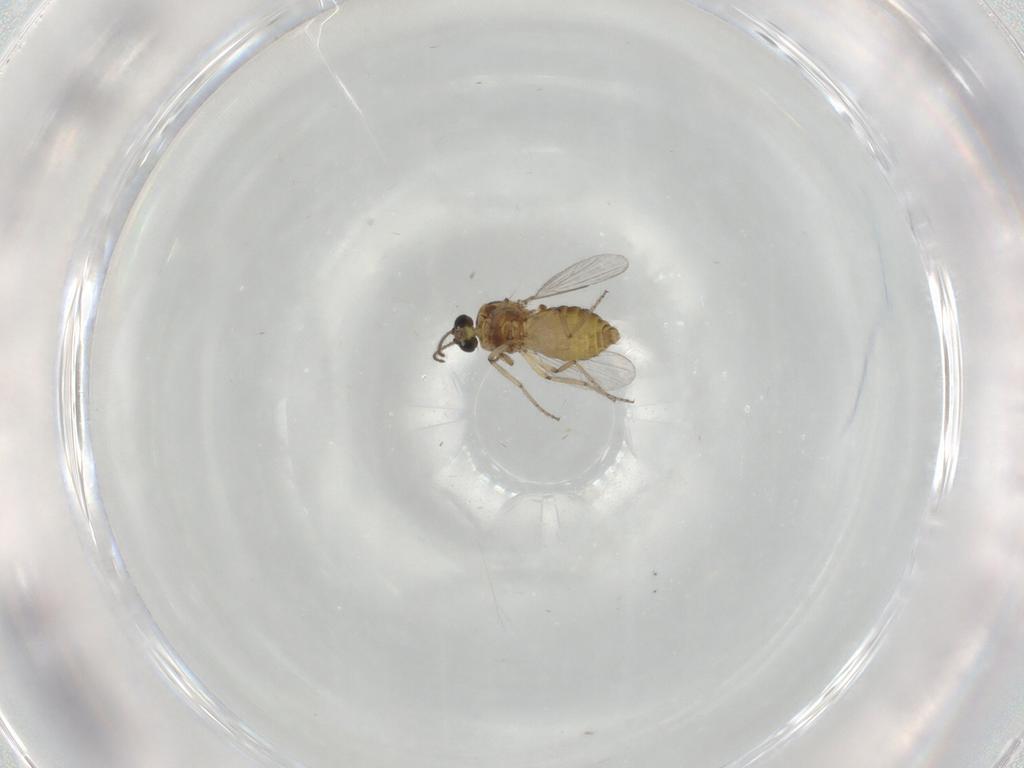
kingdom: Animalia
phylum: Arthropoda
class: Insecta
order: Diptera
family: Ceratopogonidae
